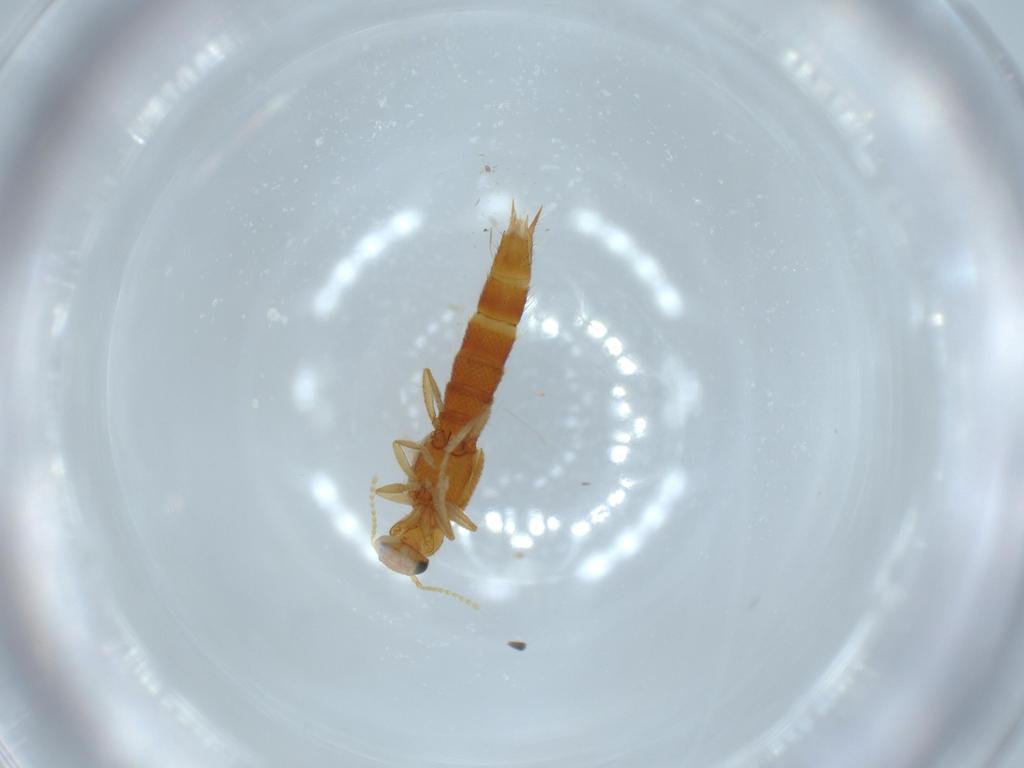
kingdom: Animalia
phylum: Arthropoda
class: Insecta
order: Coleoptera
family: Staphylinidae
